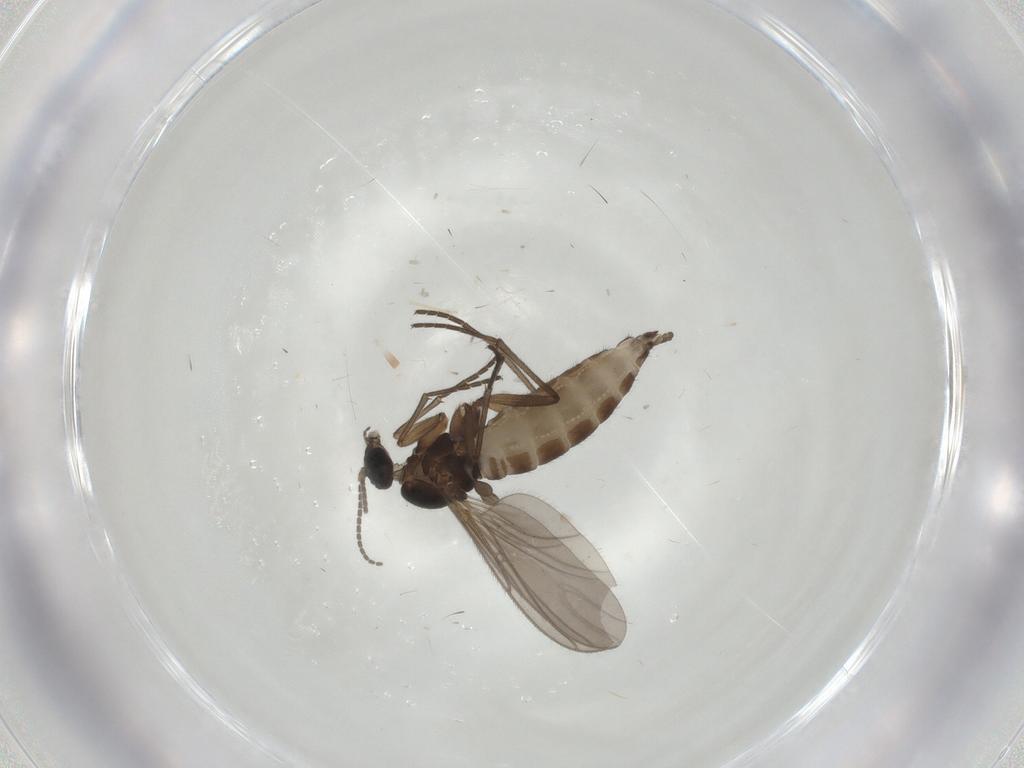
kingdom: Animalia
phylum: Arthropoda
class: Insecta
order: Diptera
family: Sciaridae
